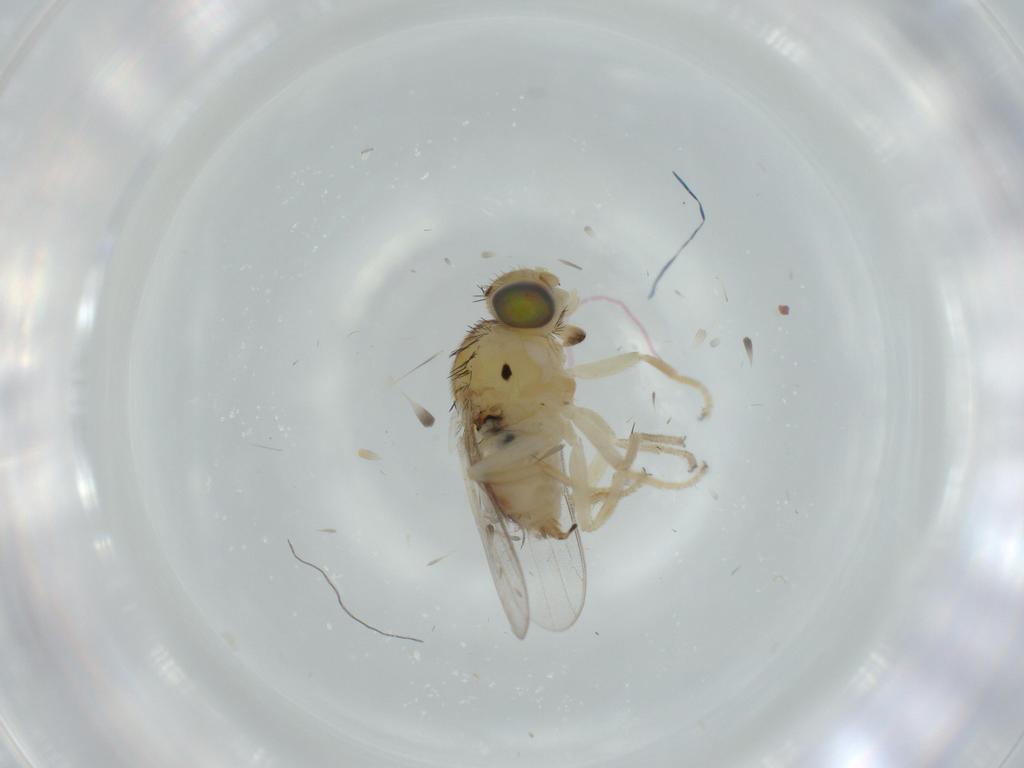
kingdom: Animalia
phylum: Arthropoda
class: Insecta
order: Diptera
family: Chloropidae
